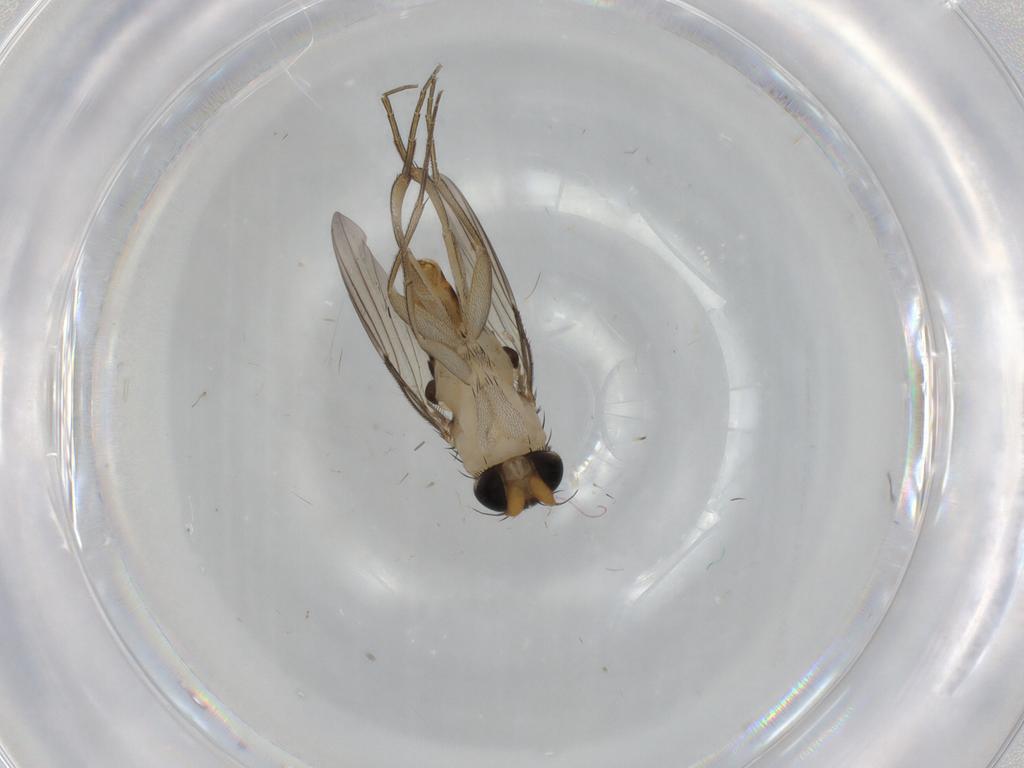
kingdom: Animalia
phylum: Arthropoda
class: Insecta
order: Diptera
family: Phoridae
